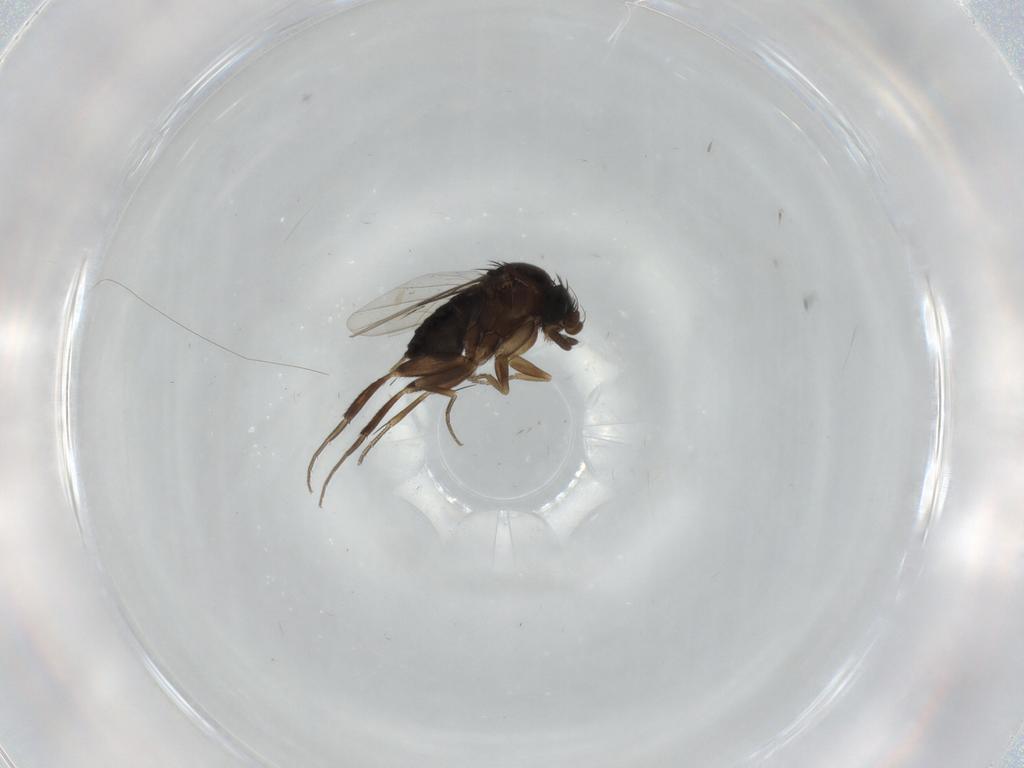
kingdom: Animalia
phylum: Arthropoda
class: Insecta
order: Diptera
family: Phoridae
